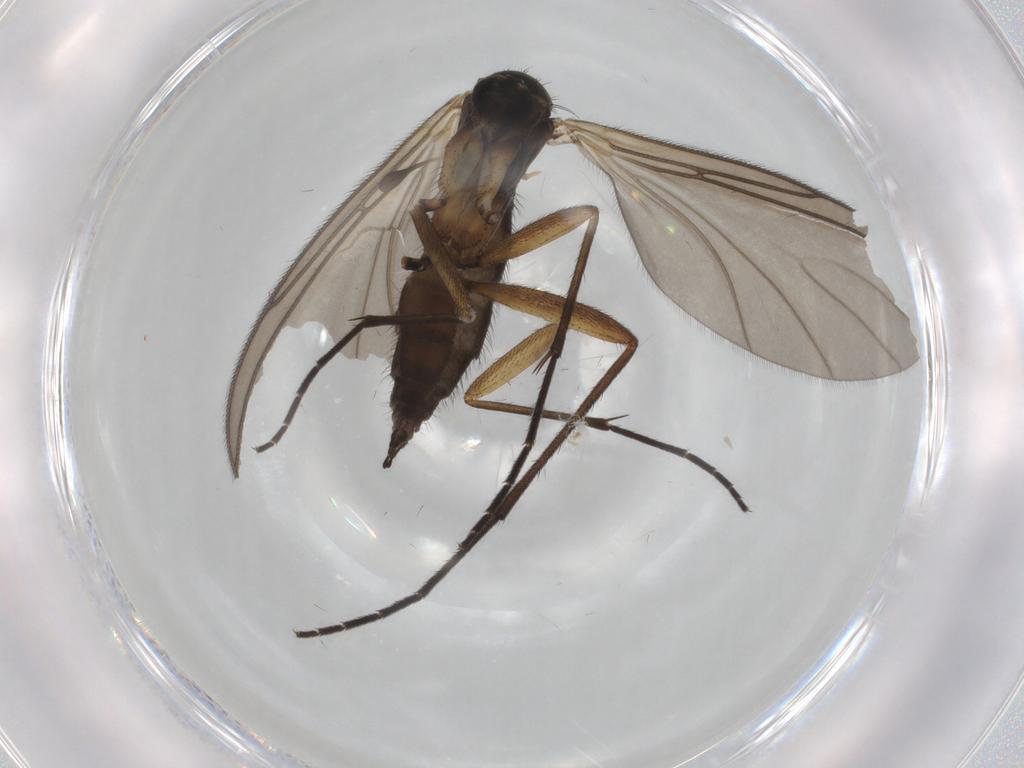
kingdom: Animalia
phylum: Arthropoda
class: Insecta
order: Diptera
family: Sciaridae
